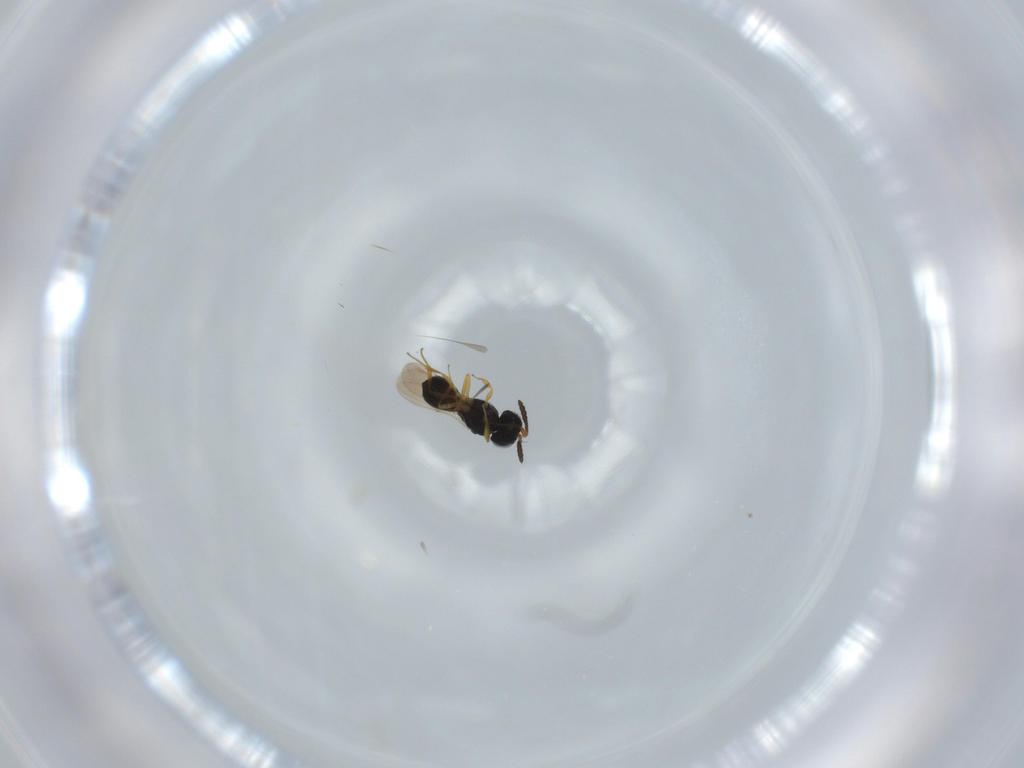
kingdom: Animalia
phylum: Arthropoda
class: Insecta
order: Hymenoptera
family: Scelionidae
